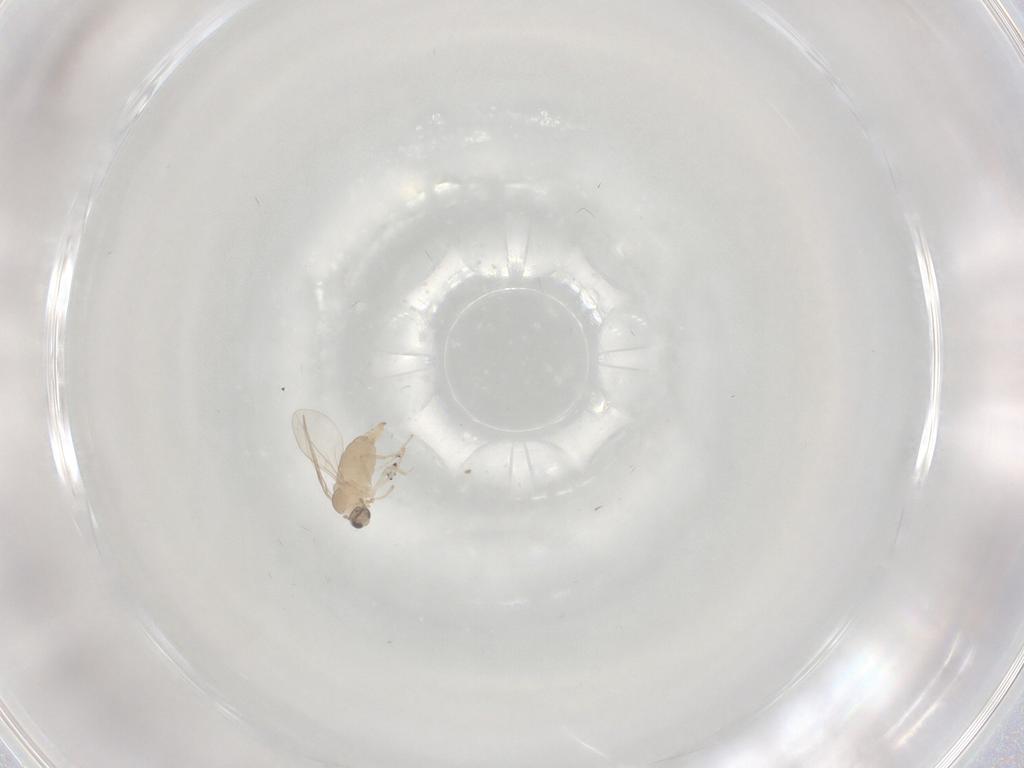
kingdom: Animalia
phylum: Arthropoda
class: Insecta
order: Diptera
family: Cecidomyiidae
